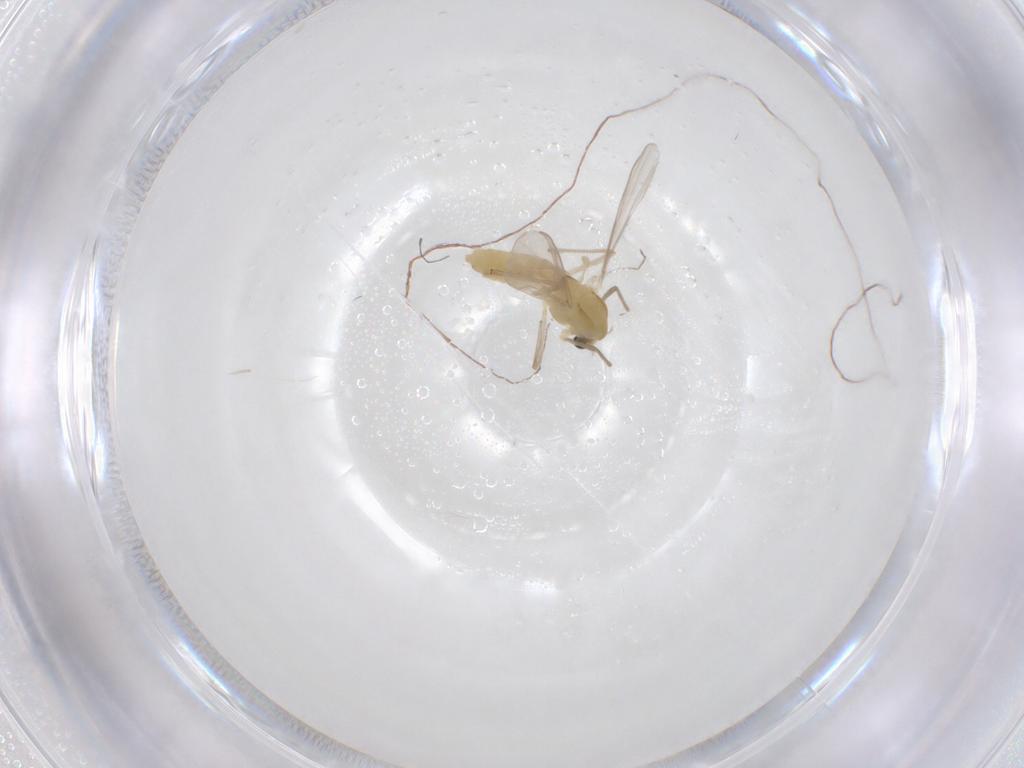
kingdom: Animalia
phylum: Arthropoda
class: Insecta
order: Diptera
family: Chironomidae
